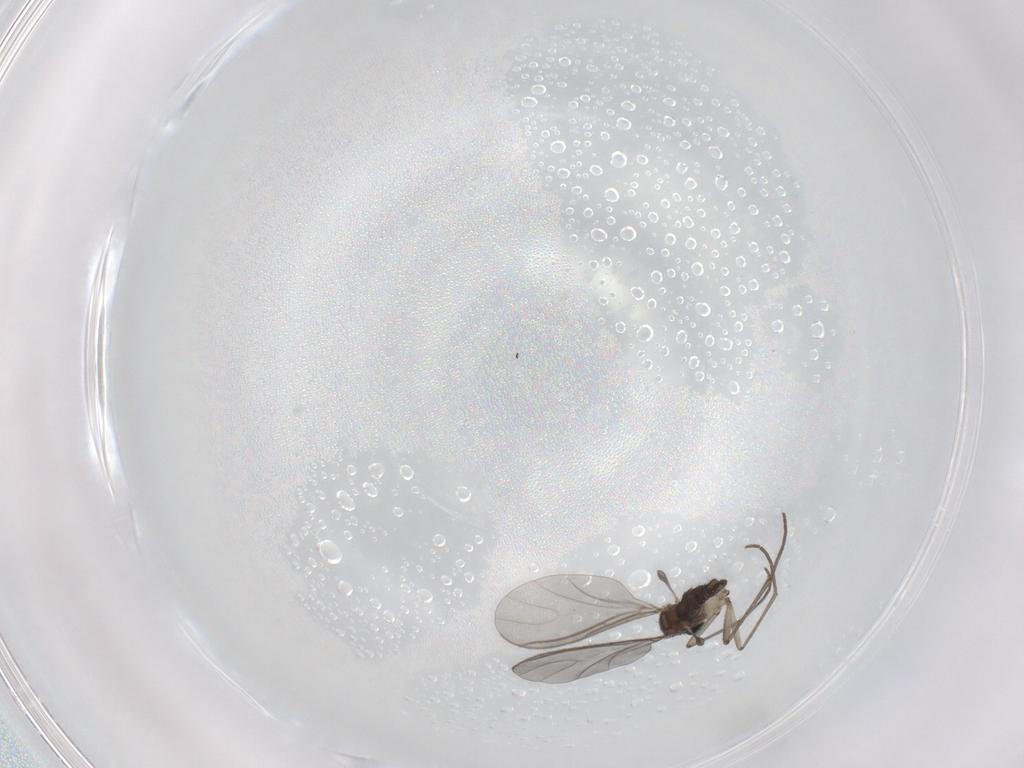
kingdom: Animalia
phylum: Arthropoda
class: Insecta
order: Diptera
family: Sciaridae
